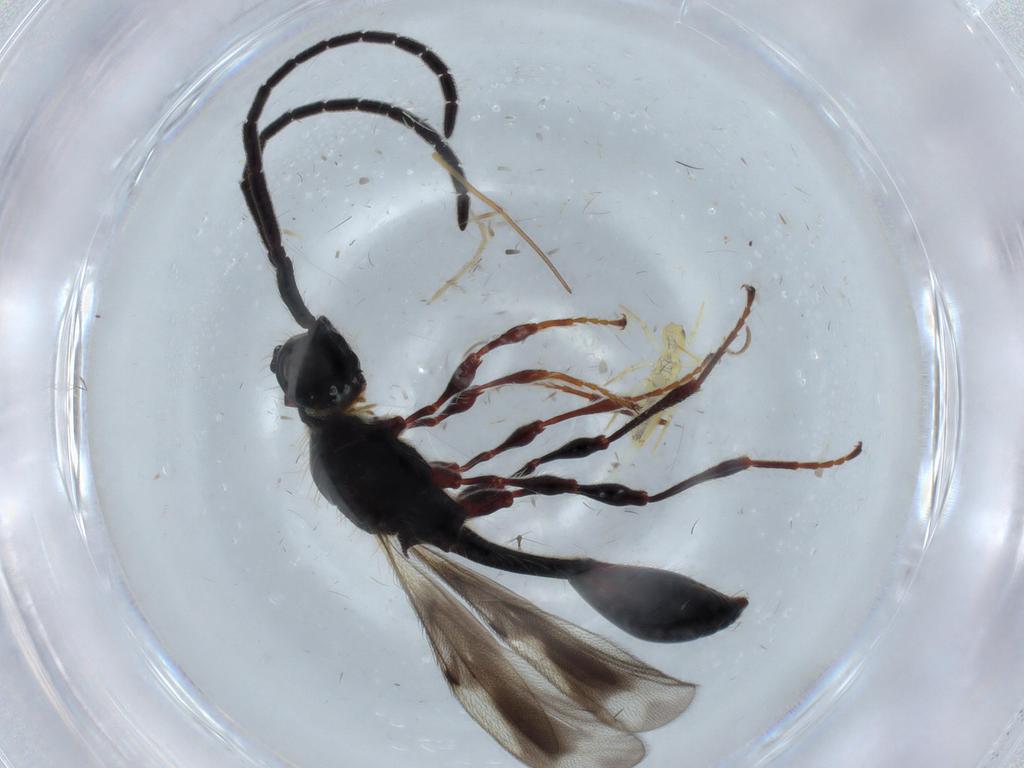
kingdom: Animalia
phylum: Arthropoda
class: Insecta
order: Hymenoptera
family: Diapriidae
